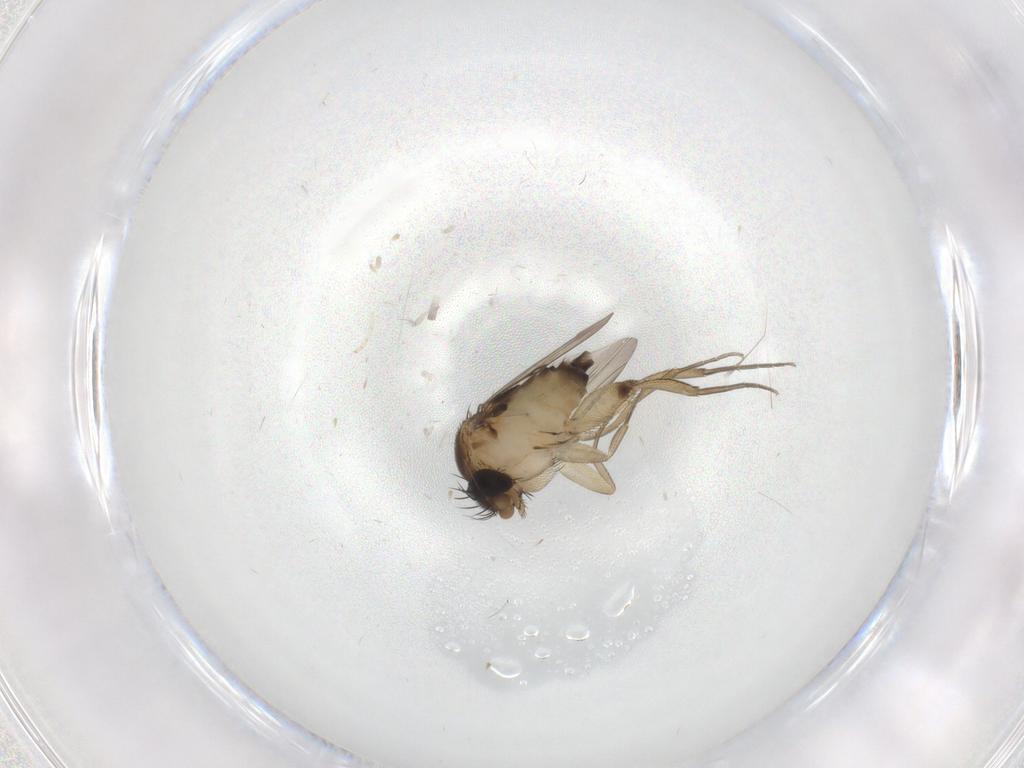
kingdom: Animalia
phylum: Arthropoda
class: Insecta
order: Diptera
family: Phoridae
